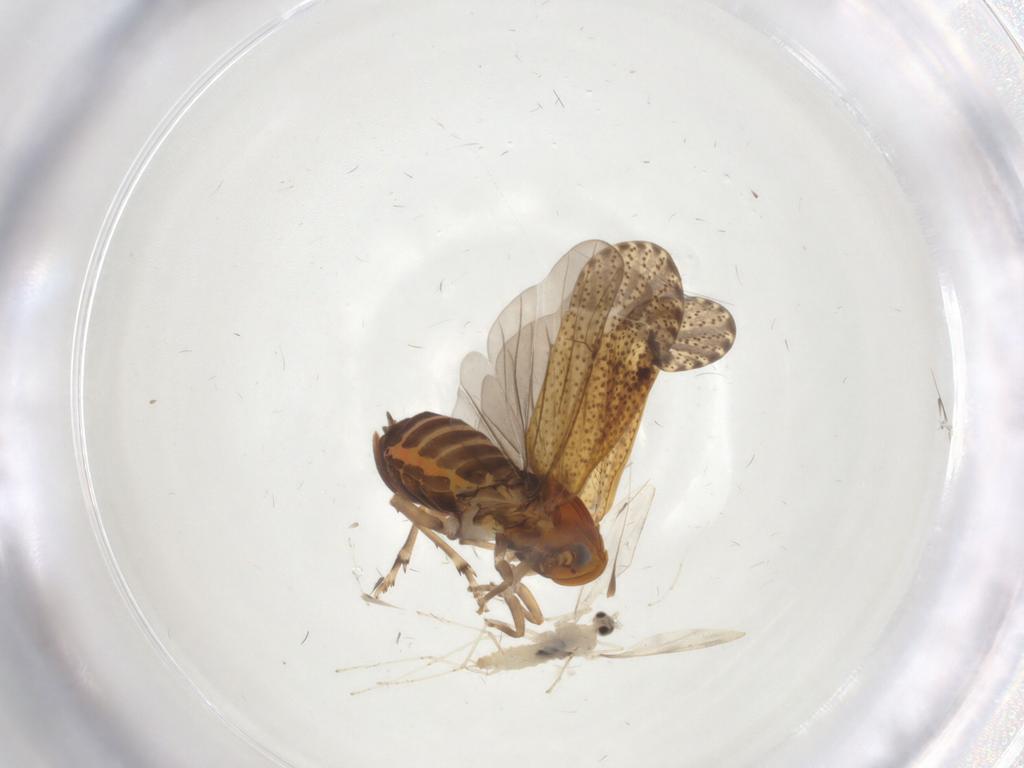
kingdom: Animalia
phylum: Arthropoda
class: Insecta
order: Hemiptera
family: Delphacidae
